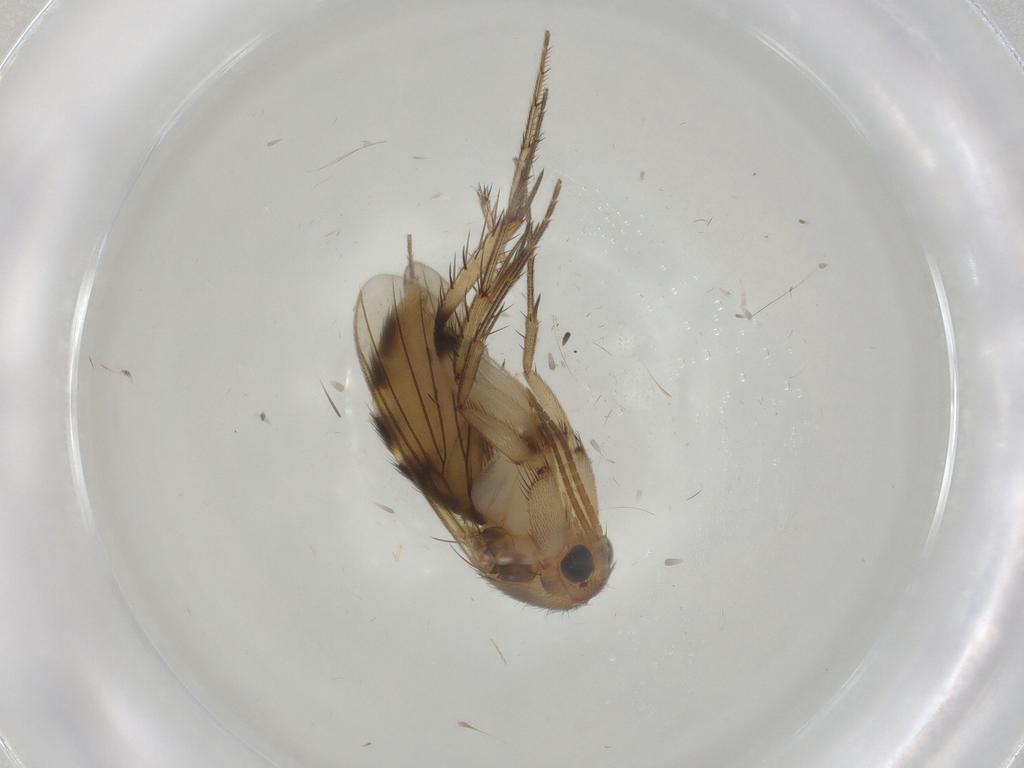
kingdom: Animalia
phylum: Arthropoda
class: Insecta
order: Diptera
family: Mycetophilidae
